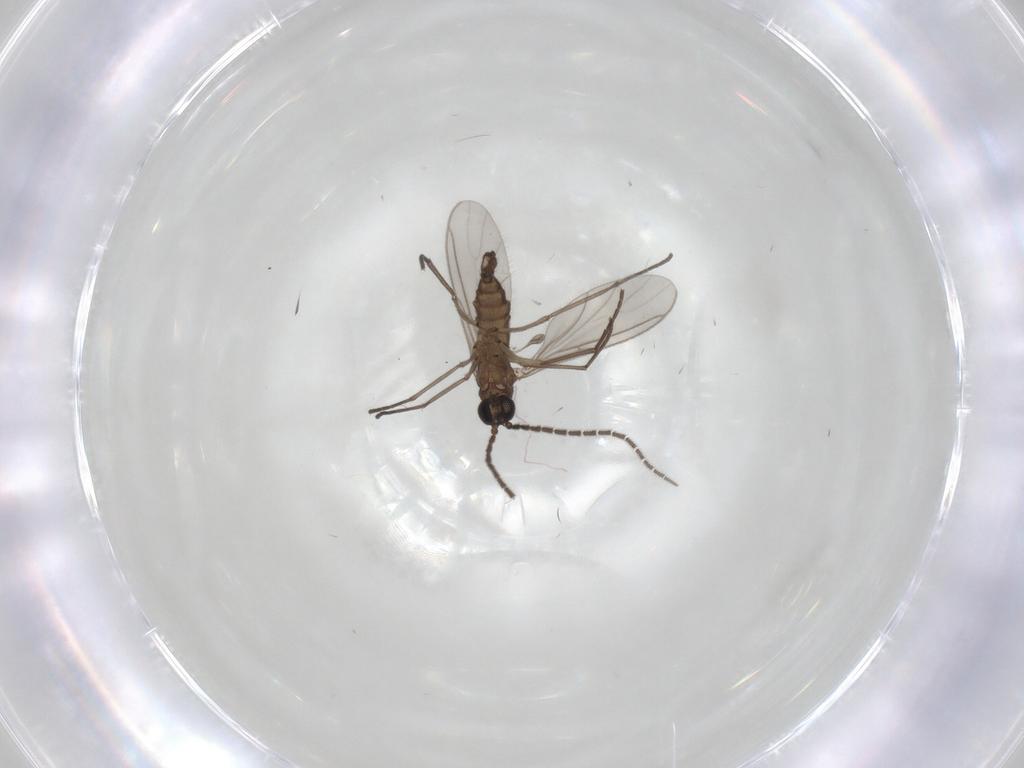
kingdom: Animalia
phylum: Arthropoda
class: Insecta
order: Diptera
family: Sciaridae
